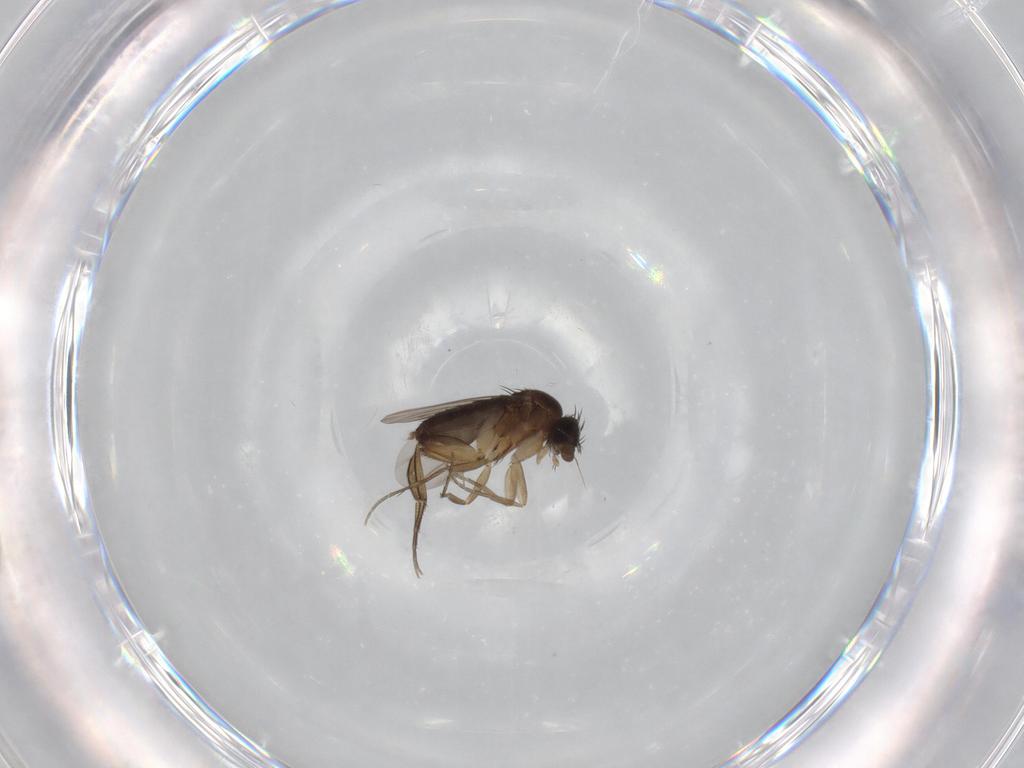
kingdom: Animalia
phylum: Arthropoda
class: Insecta
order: Diptera
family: Phoridae
